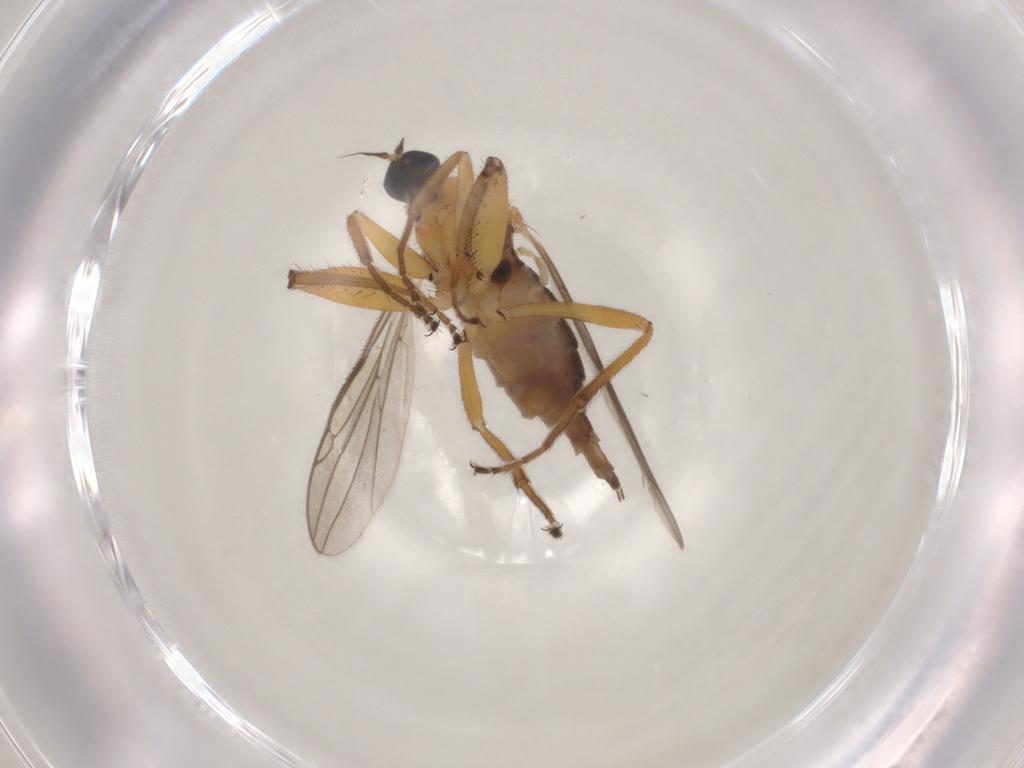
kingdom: Animalia
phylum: Arthropoda
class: Insecta
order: Diptera
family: Hybotidae
